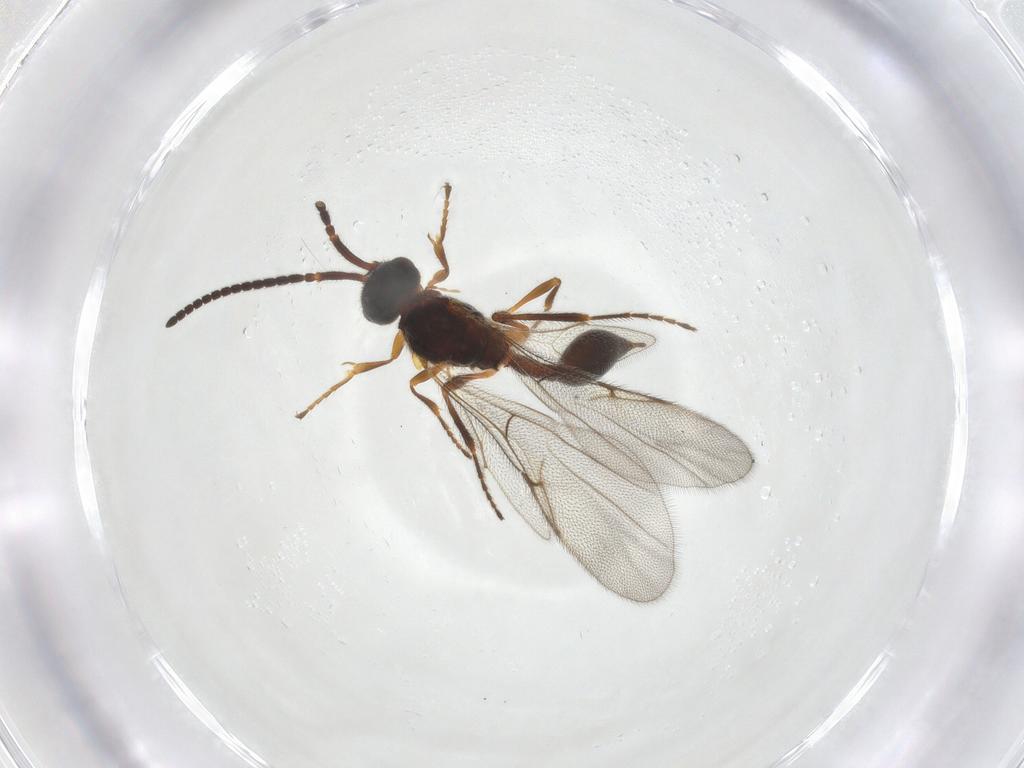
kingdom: Animalia
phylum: Arthropoda
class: Insecta
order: Hymenoptera
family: Diapriidae
